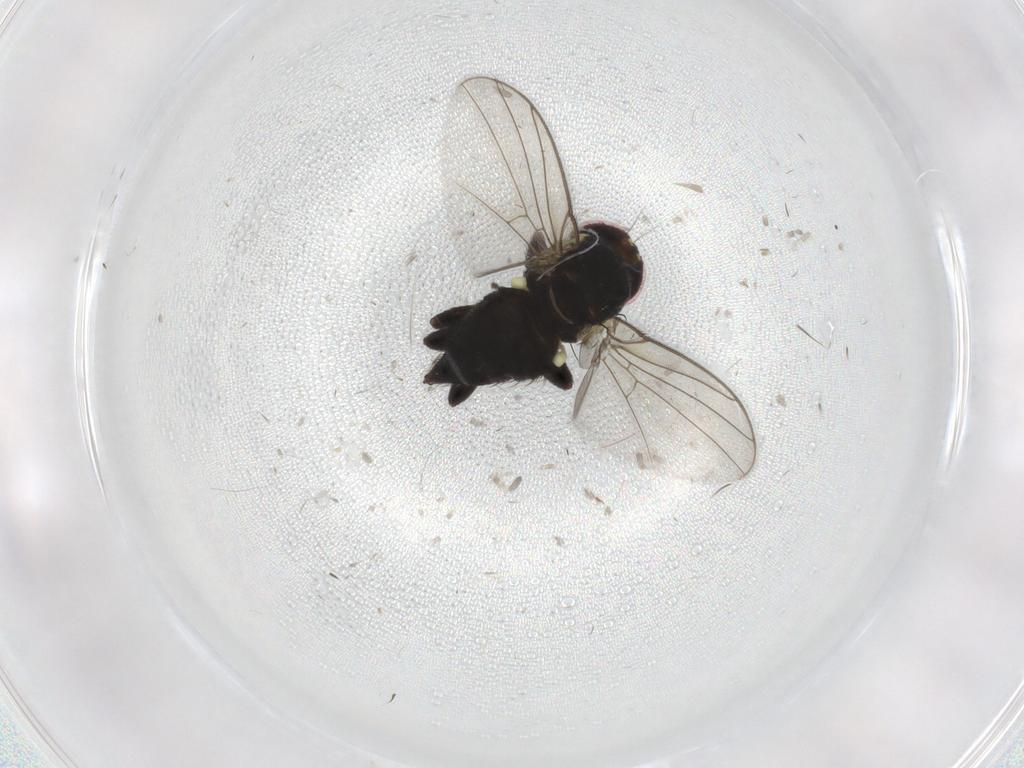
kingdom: Animalia
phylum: Arthropoda
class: Insecta
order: Diptera
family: Agromyzidae
